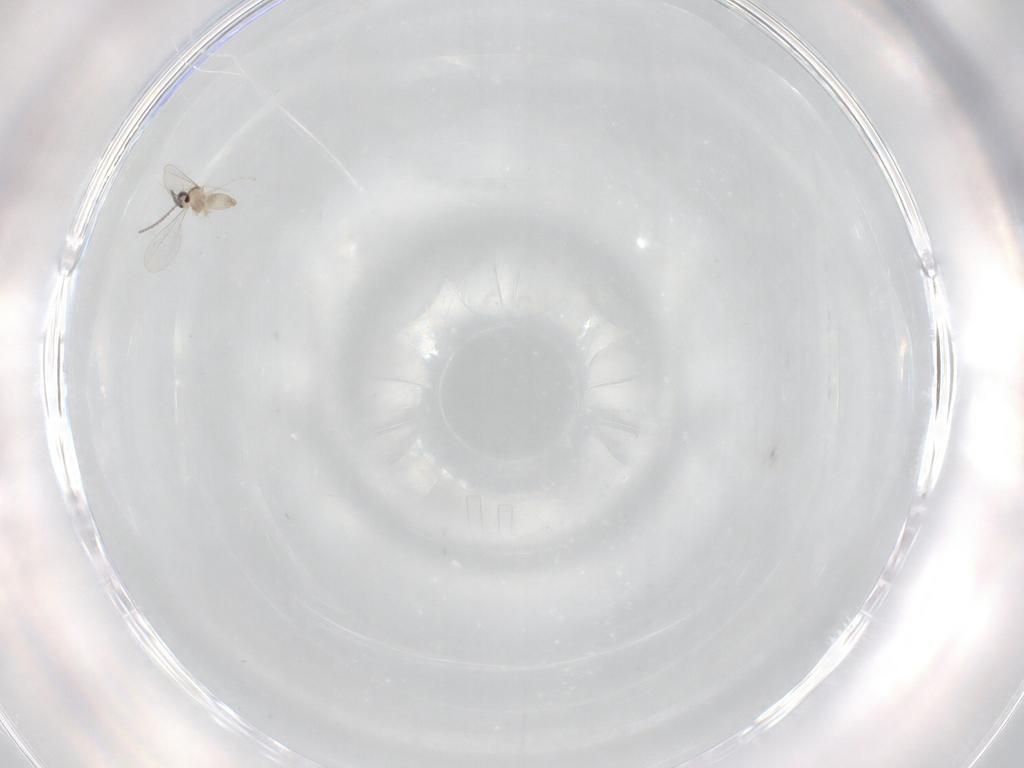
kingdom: Animalia
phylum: Arthropoda
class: Insecta
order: Diptera
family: Cecidomyiidae
